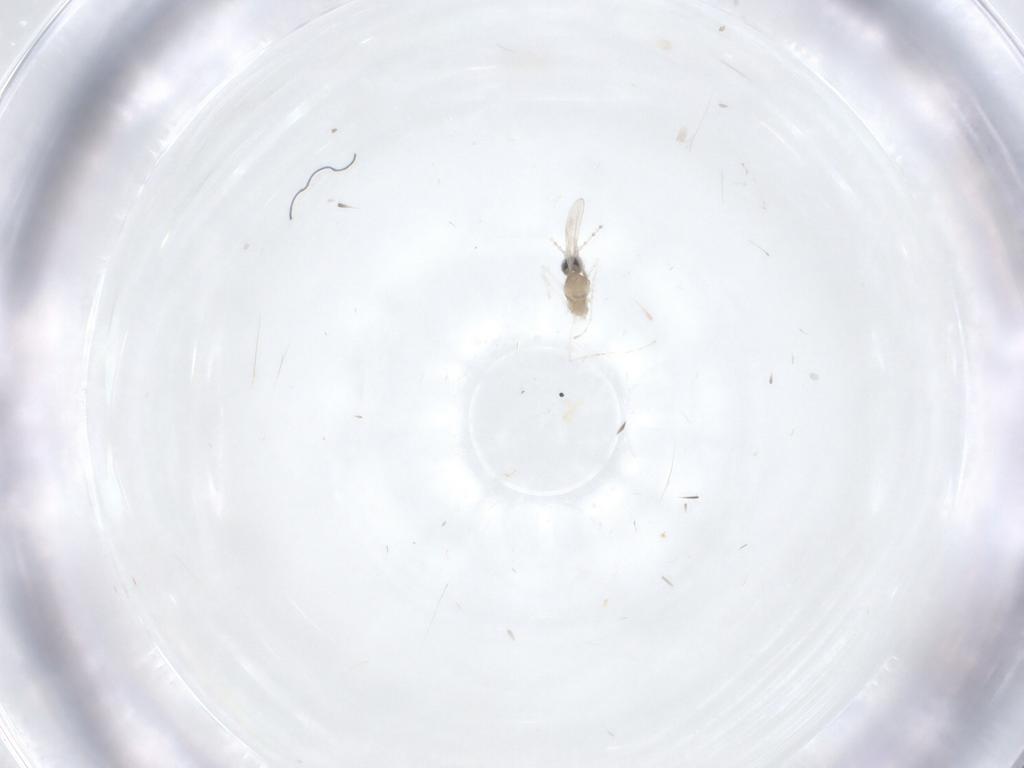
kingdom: Animalia
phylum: Arthropoda
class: Insecta
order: Diptera
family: Cecidomyiidae
